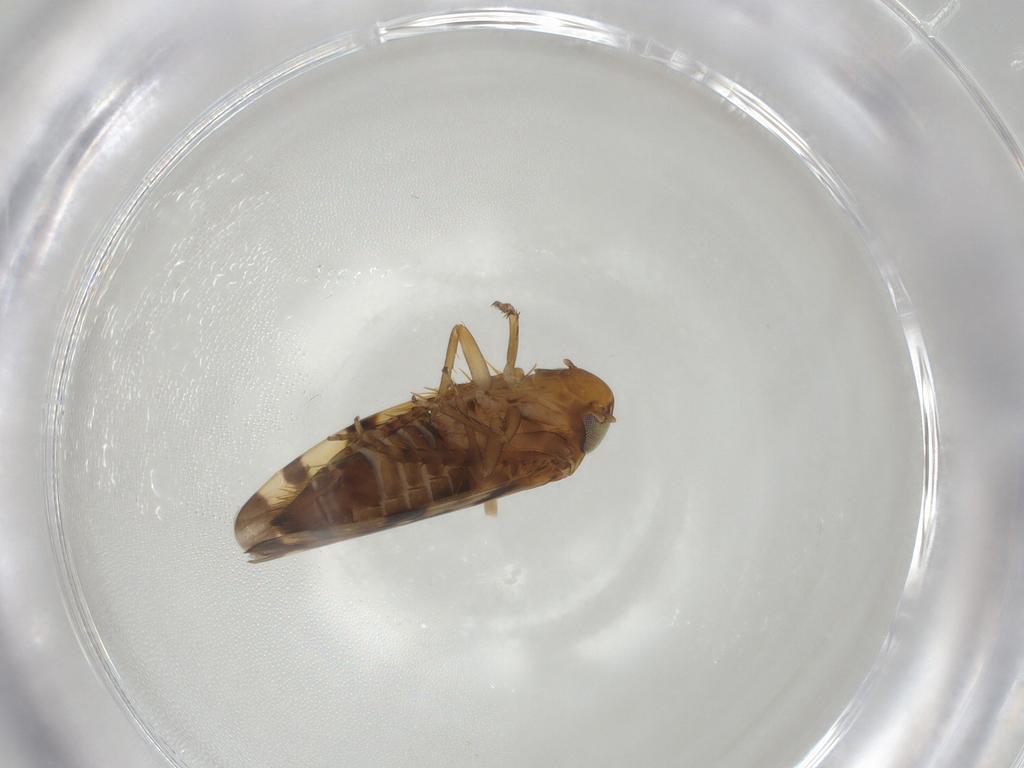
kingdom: Animalia
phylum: Arthropoda
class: Insecta
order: Hemiptera
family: Cicadellidae
